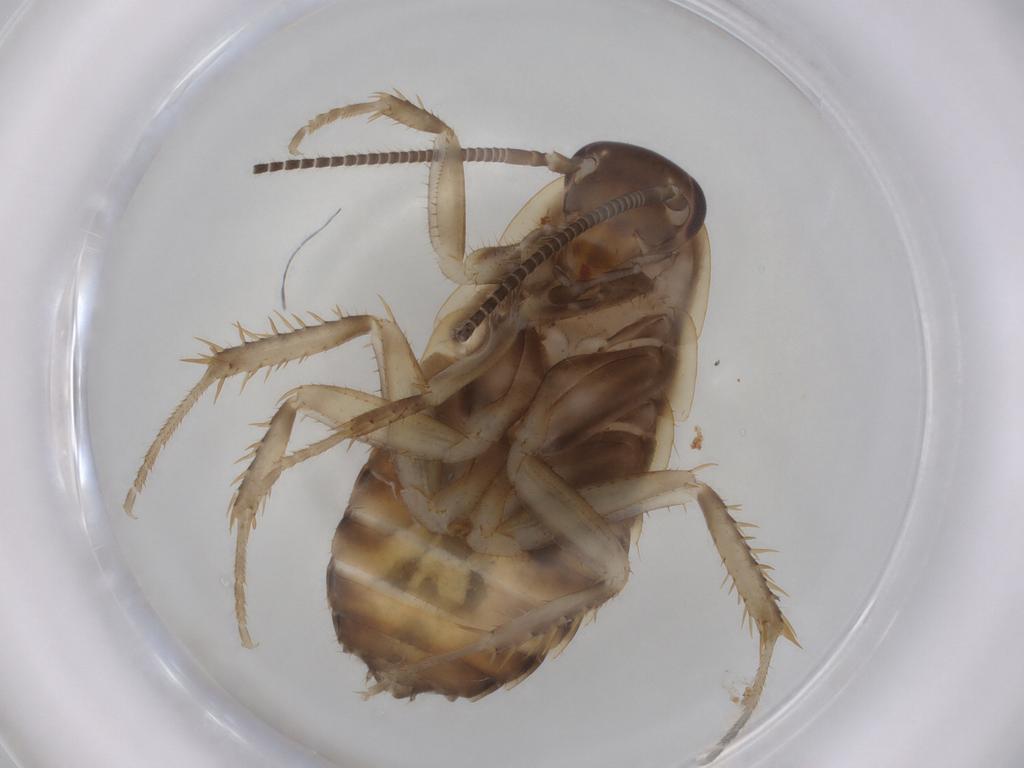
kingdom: Animalia
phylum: Arthropoda
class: Insecta
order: Blattodea
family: Blaberidae
